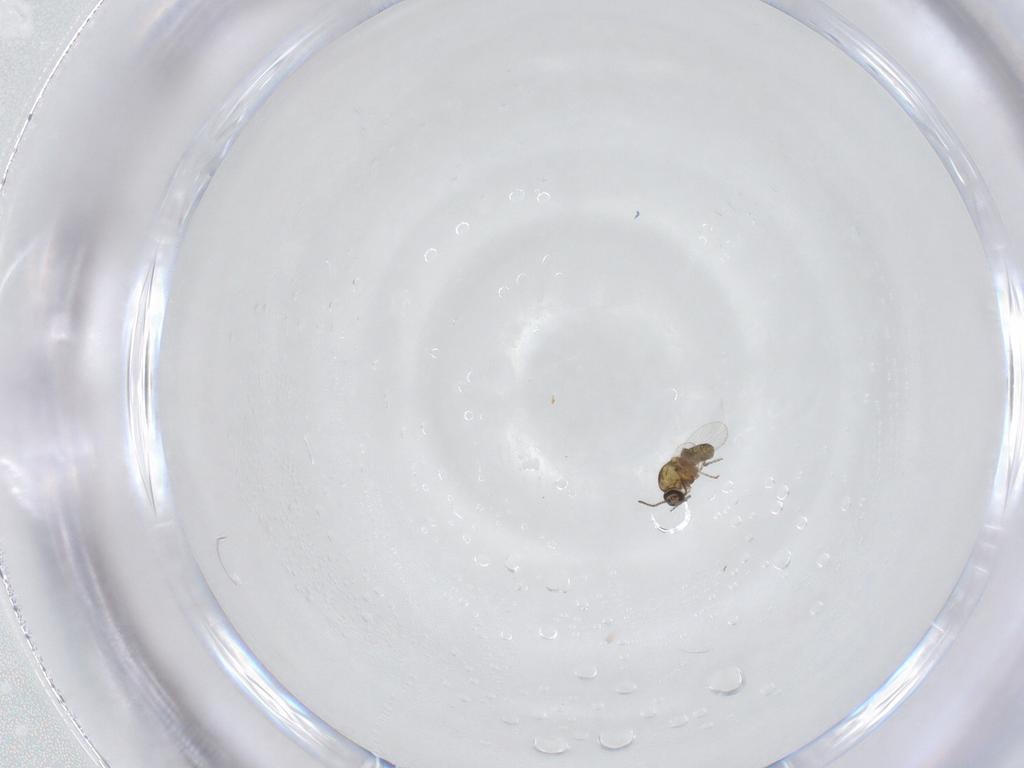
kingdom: Animalia
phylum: Arthropoda
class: Insecta
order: Diptera
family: Ceratopogonidae
